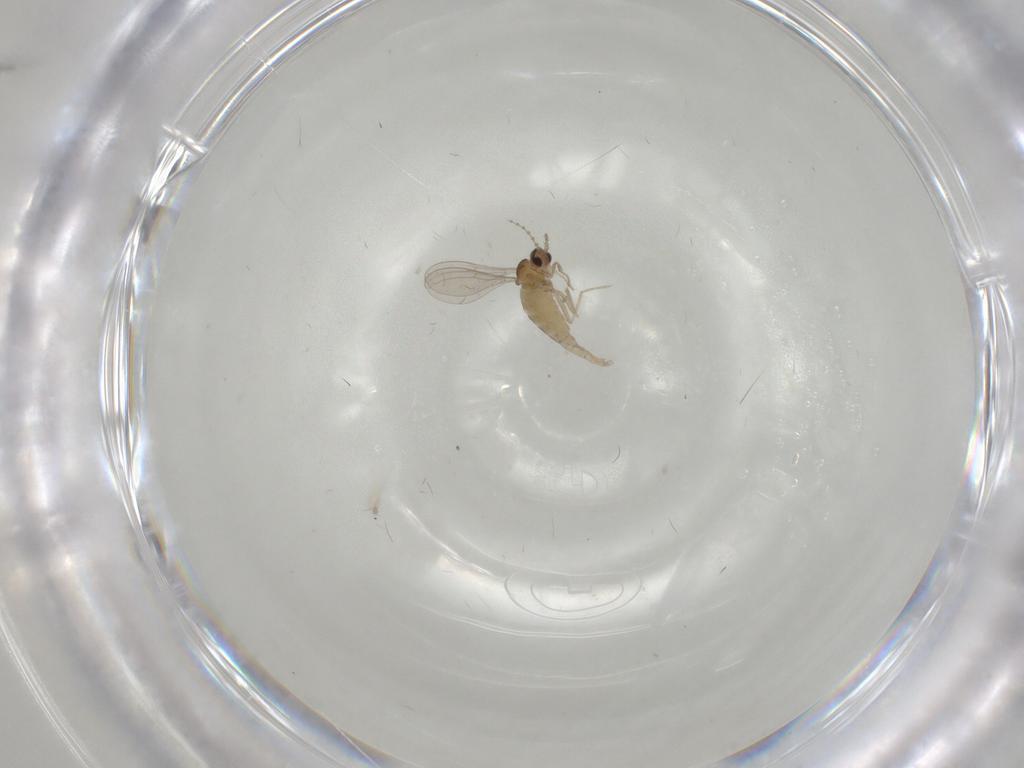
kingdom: Animalia
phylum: Arthropoda
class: Insecta
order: Diptera
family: Cecidomyiidae
